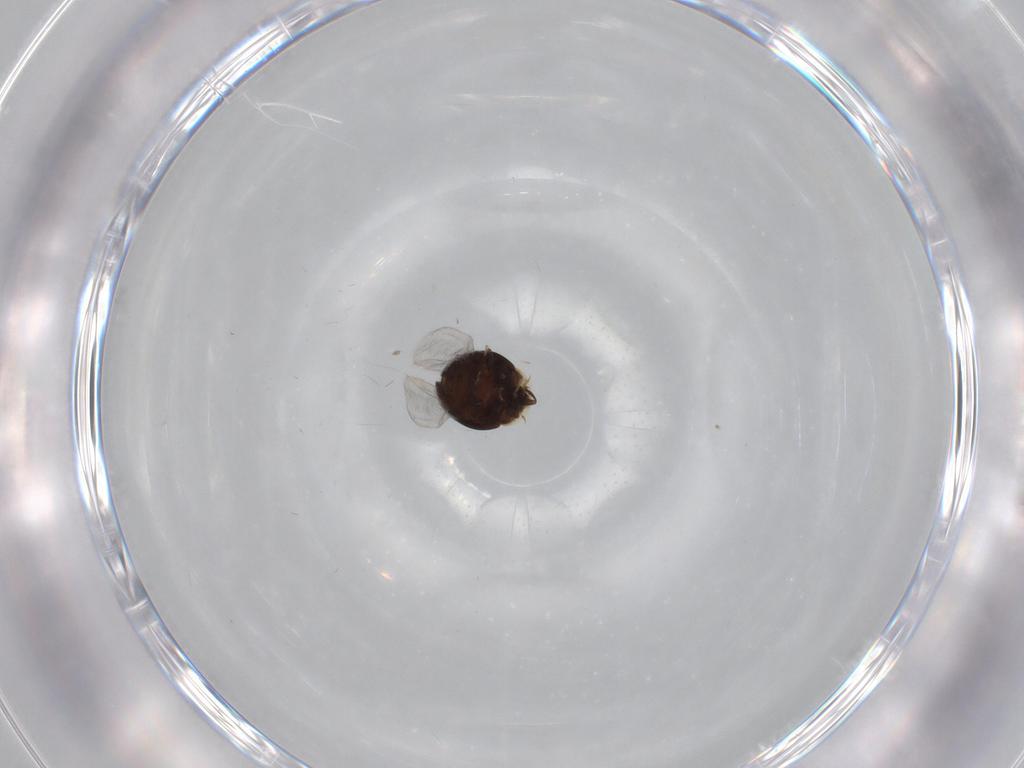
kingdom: Animalia
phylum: Arthropoda
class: Insecta
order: Coleoptera
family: Corylophidae
